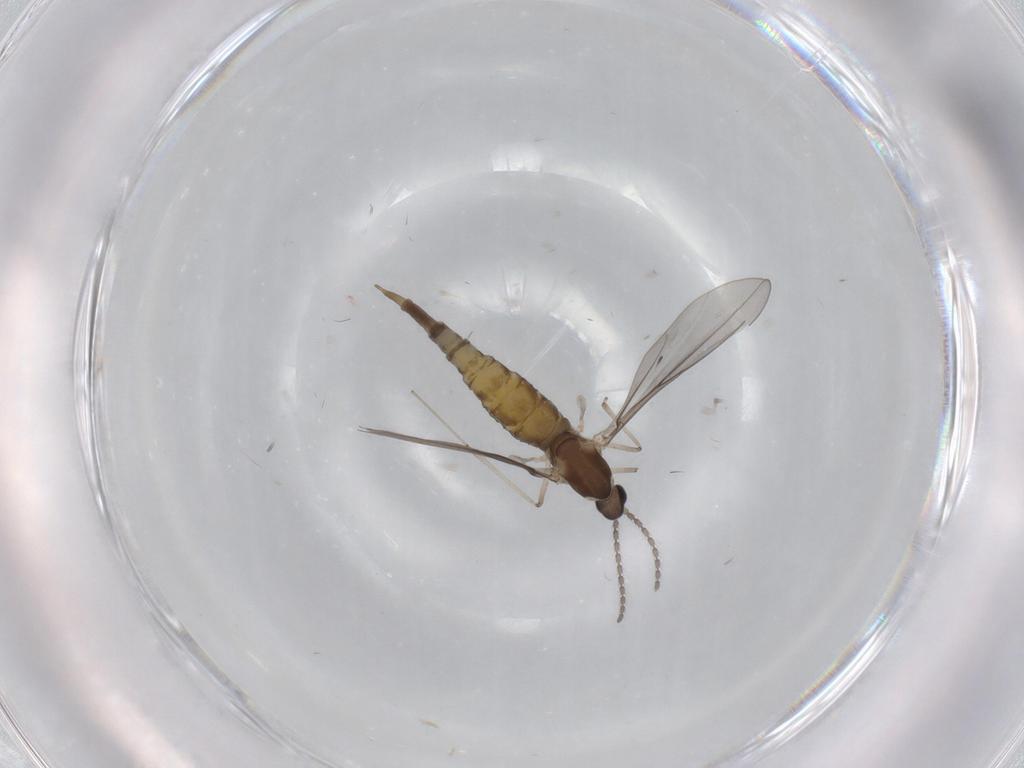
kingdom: Animalia
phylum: Arthropoda
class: Insecta
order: Diptera
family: Cecidomyiidae
